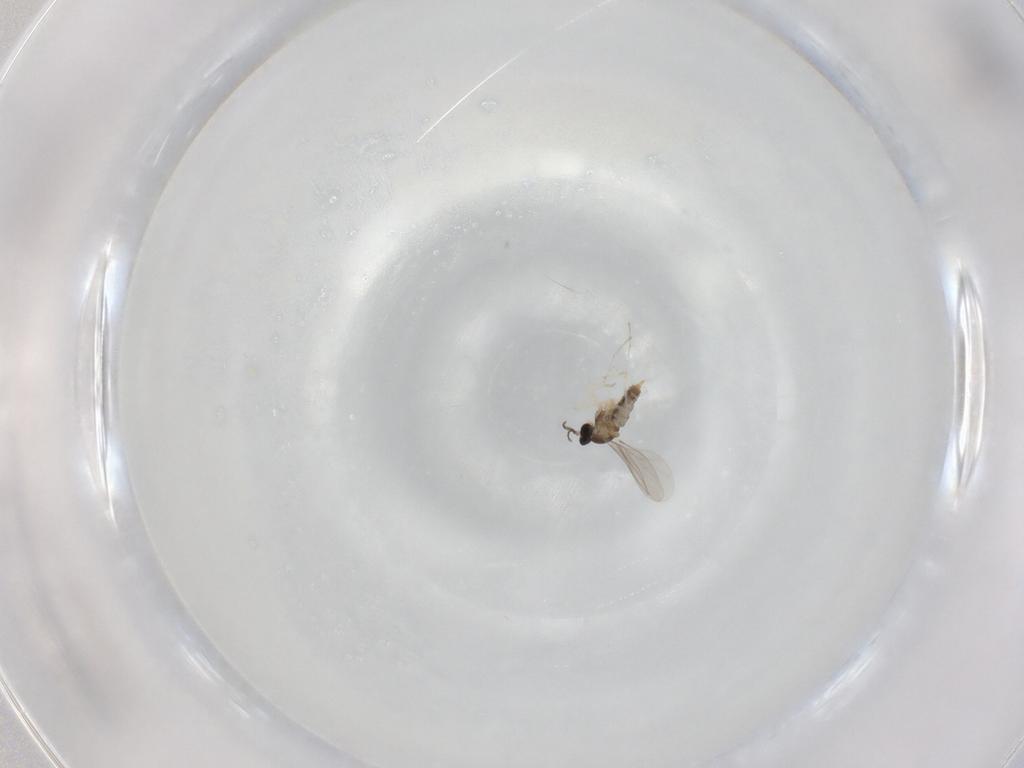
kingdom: Animalia
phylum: Arthropoda
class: Insecta
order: Diptera
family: Cecidomyiidae
